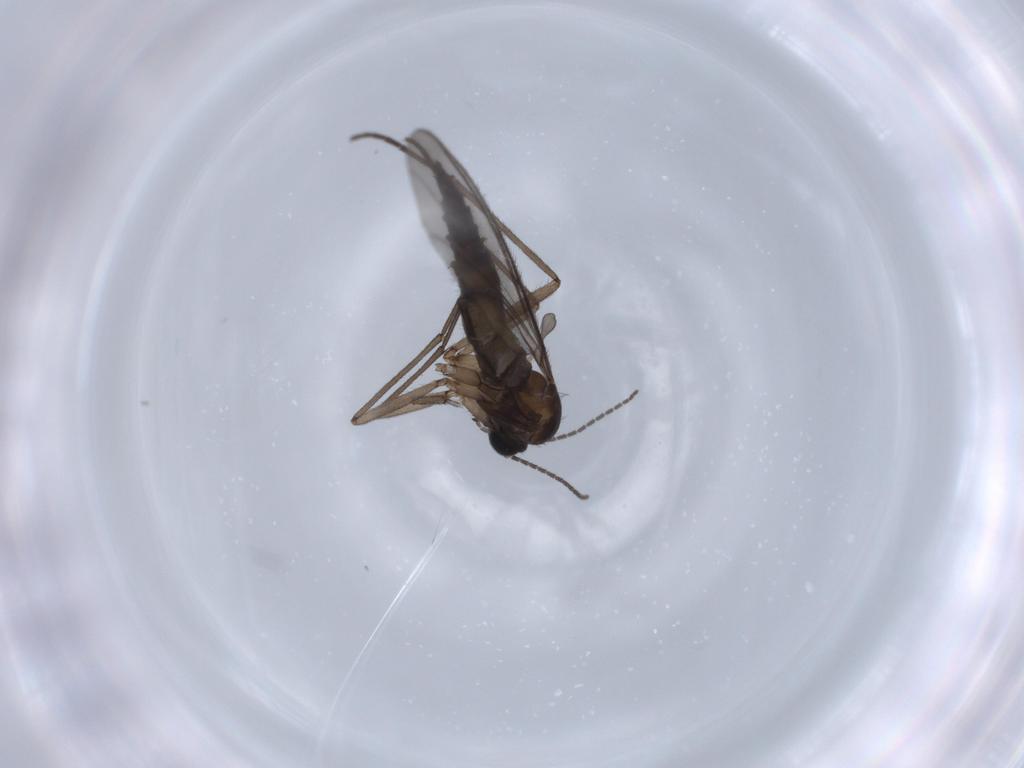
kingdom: Animalia
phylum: Arthropoda
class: Insecta
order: Diptera
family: Sciaridae
